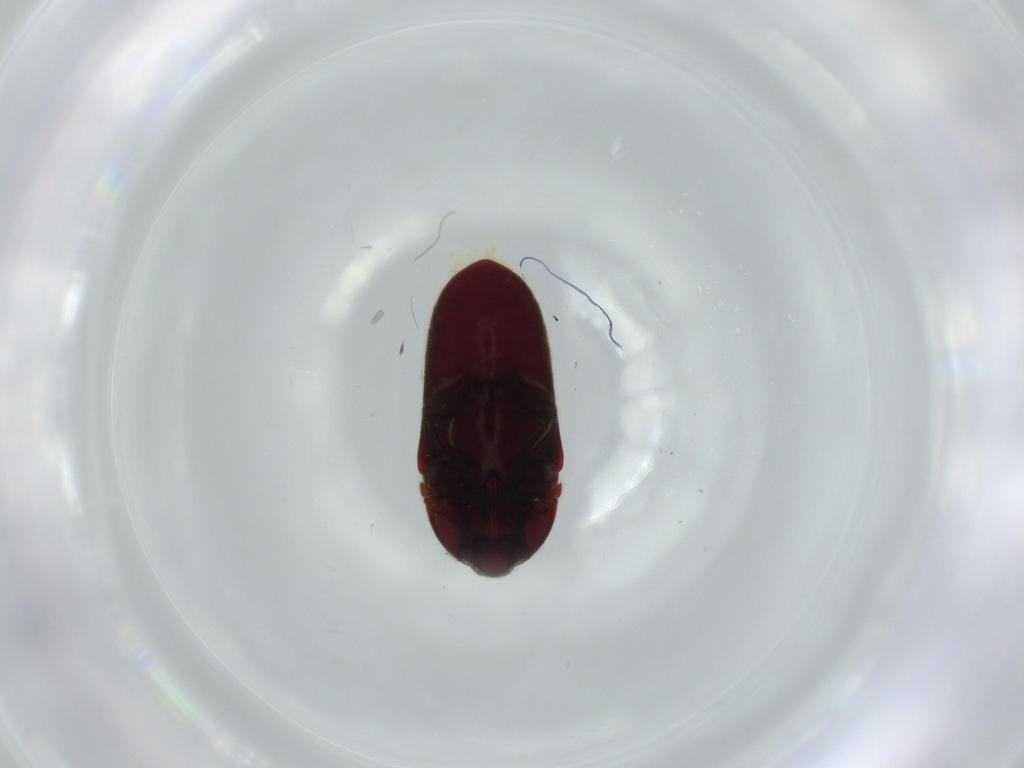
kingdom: Animalia
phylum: Arthropoda
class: Insecta
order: Coleoptera
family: Throscidae
